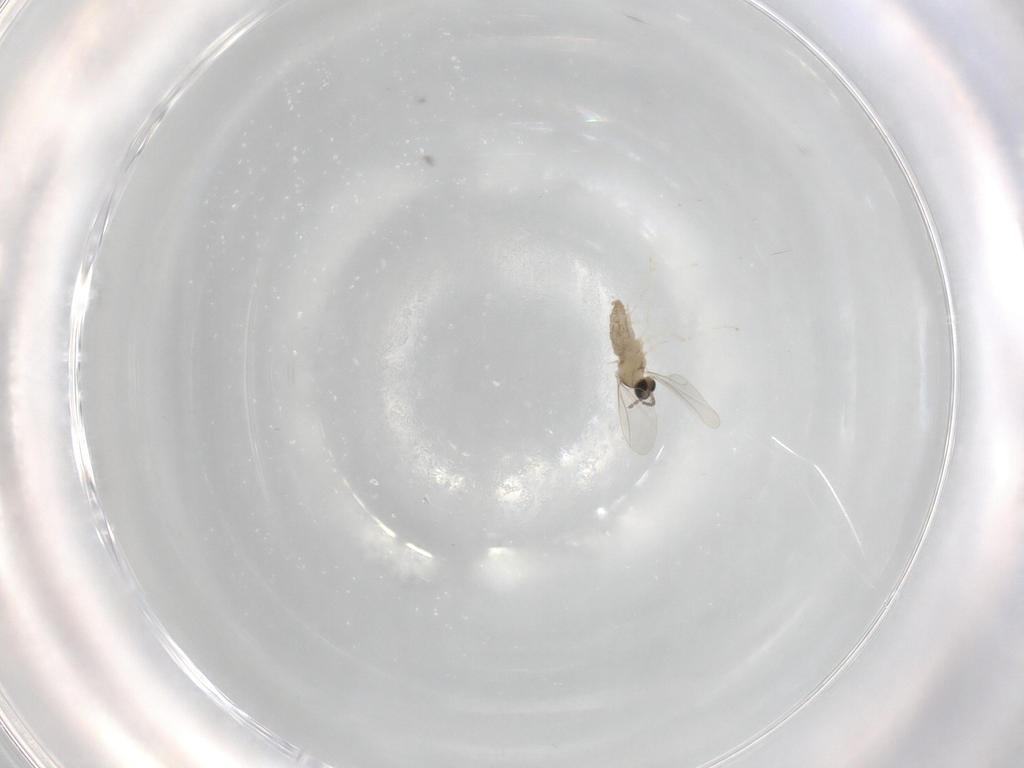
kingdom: Animalia
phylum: Arthropoda
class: Insecta
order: Diptera
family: Cecidomyiidae
